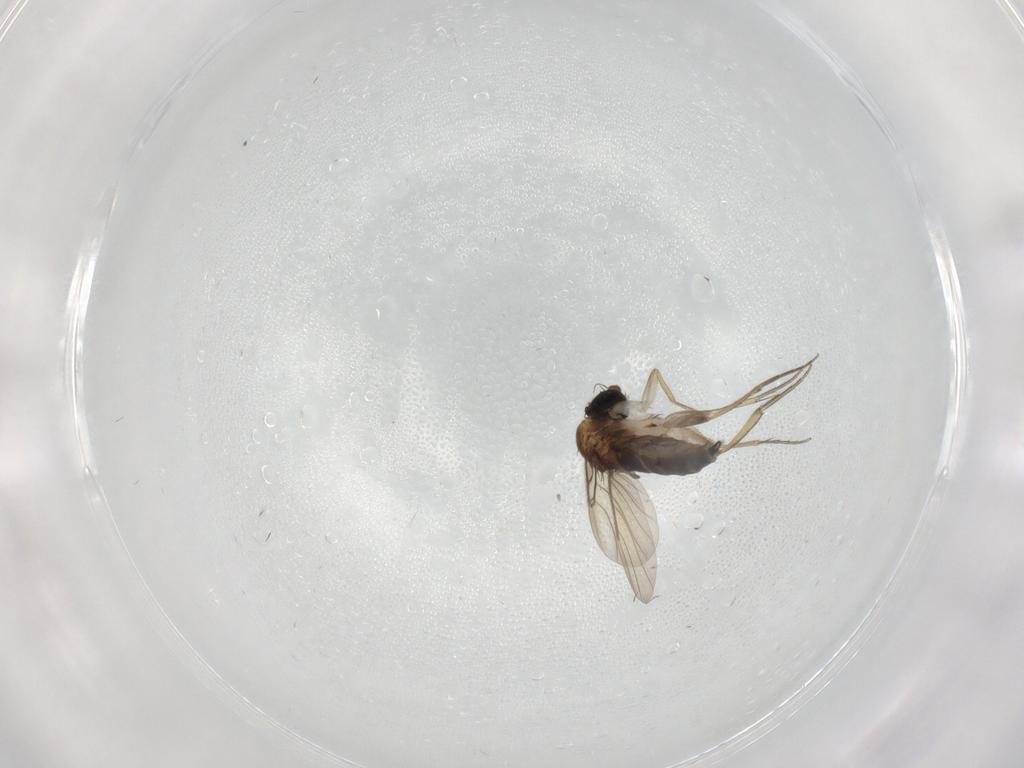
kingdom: Animalia
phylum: Arthropoda
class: Insecta
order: Diptera
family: Phoridae
